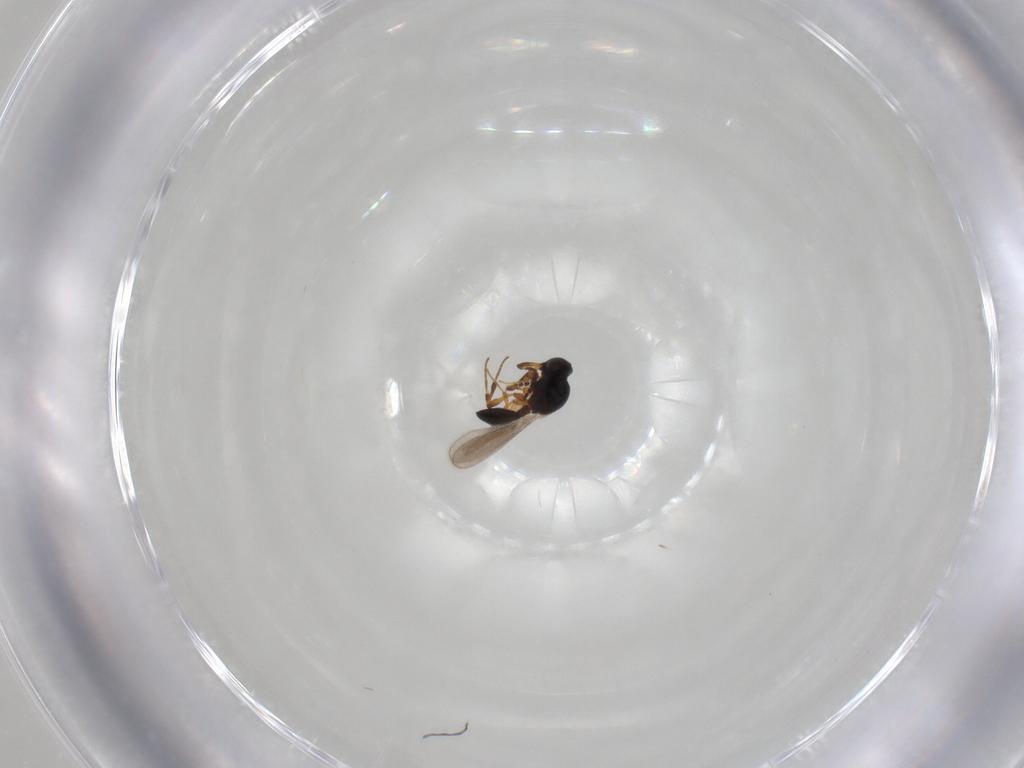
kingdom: Animalia
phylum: Arthropoda
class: Insecta
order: Hymenoptera
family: Platygastridae
